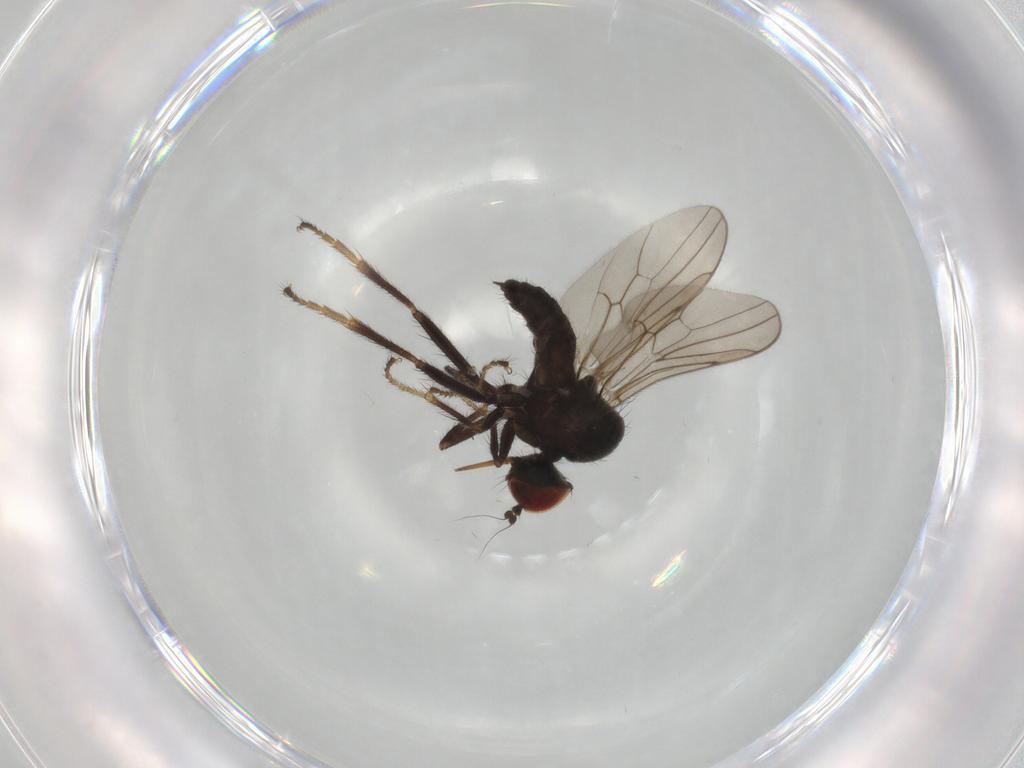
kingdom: Animalia
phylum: Arthropoda
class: Insecta
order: Diptera
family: Hybotidae
